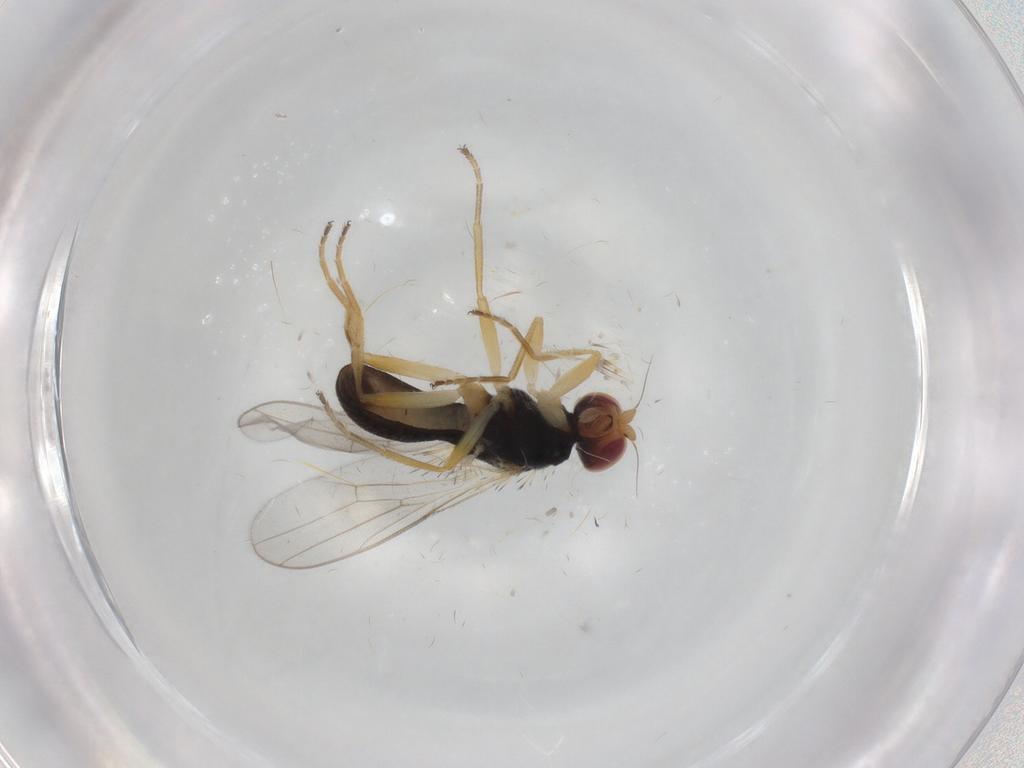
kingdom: Animalia
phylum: Arthropoda
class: Insecta
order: Diptera
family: Chloropidae
